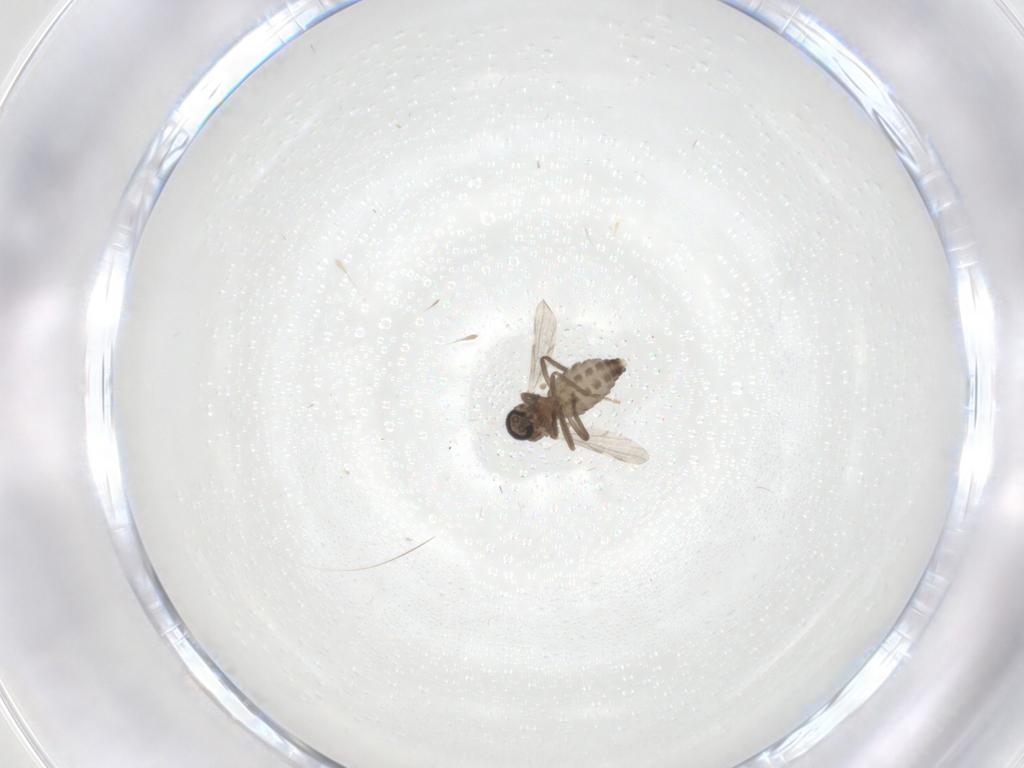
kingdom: Animalia
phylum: Arthropoda
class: Insecta
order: Diptera
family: Ceratopogonidae
